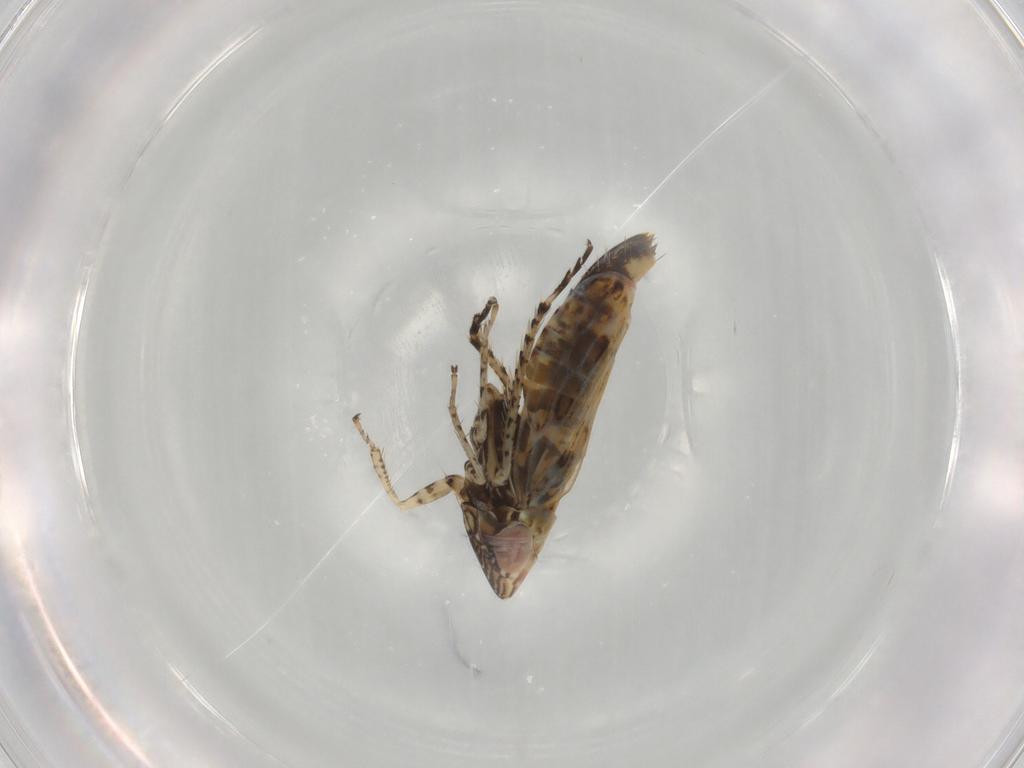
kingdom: Animalia
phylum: Arthropoda
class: Insecta
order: Hemiptera
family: Cicadellidae
